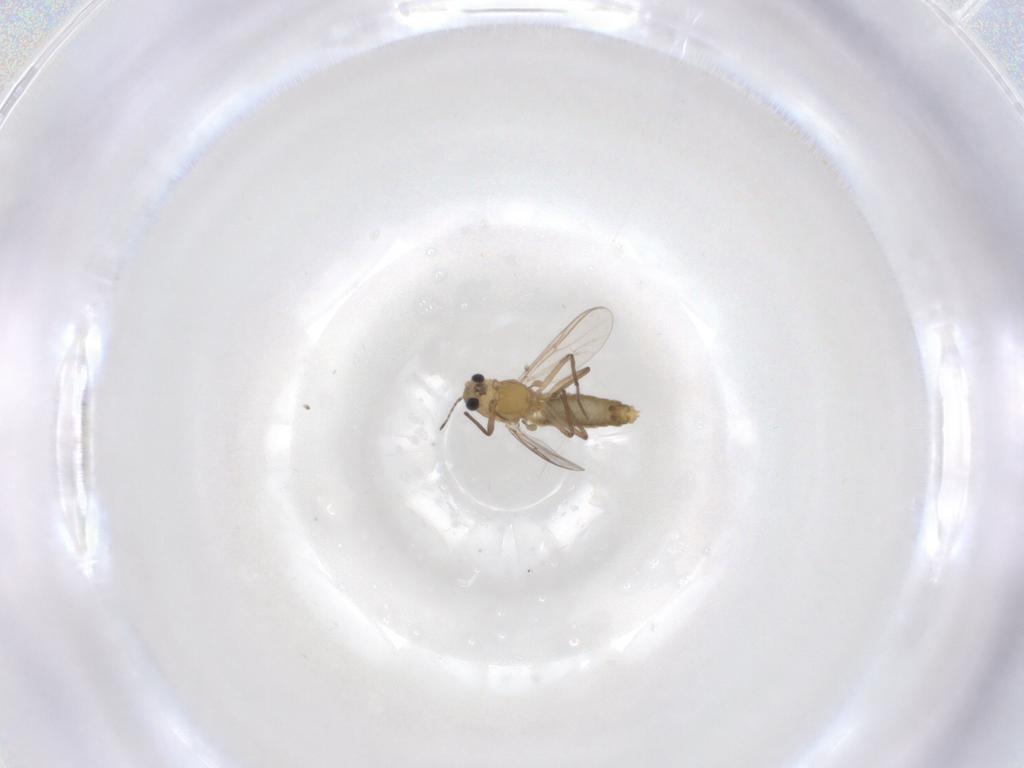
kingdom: Animalia
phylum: Arthropoda
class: Insecta
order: Diptera
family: Chironomidae
